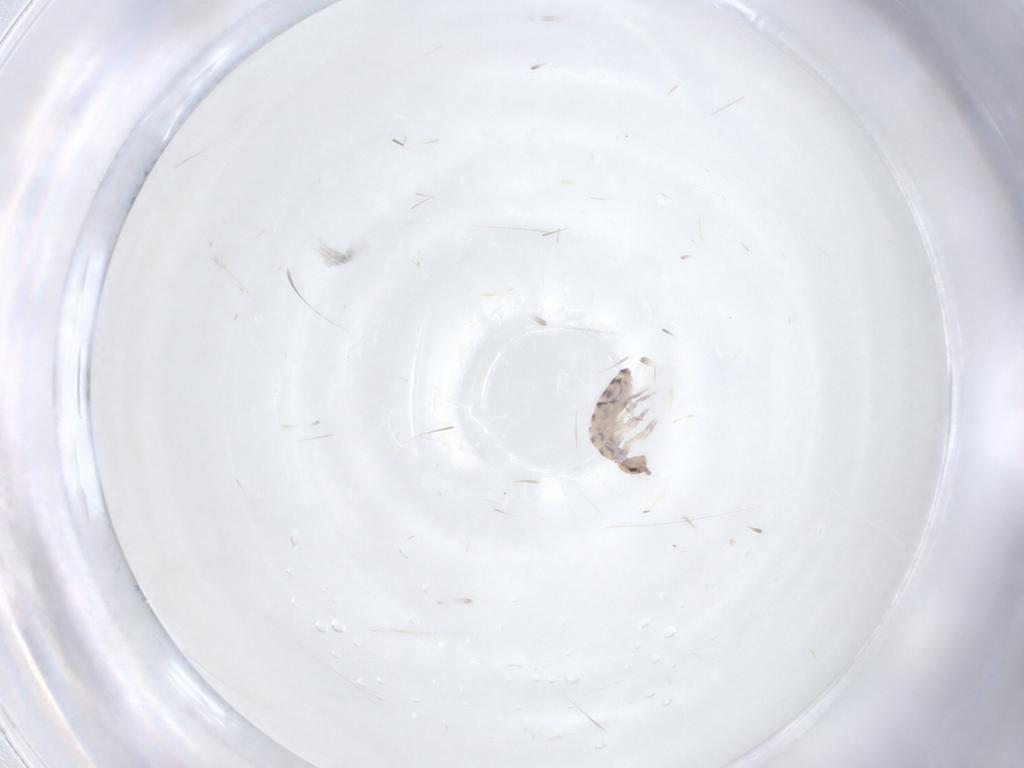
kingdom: Animalia
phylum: Arthropoda
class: Collembola
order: Entomobryomorpha
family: Entomobryidae
